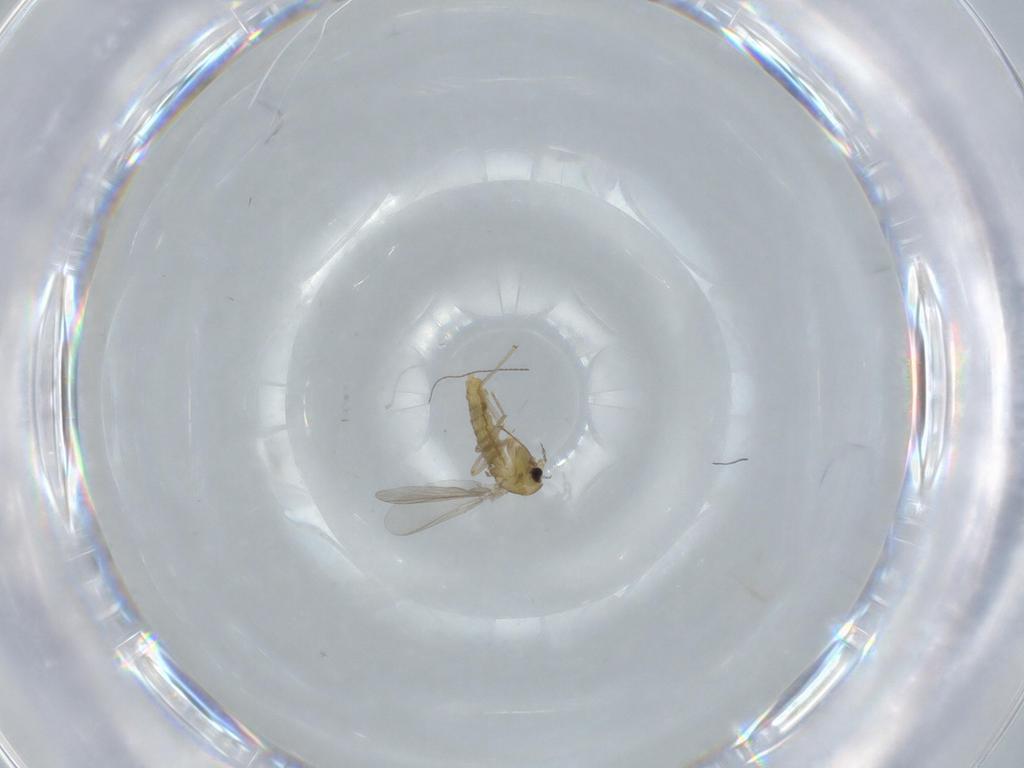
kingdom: Animalia
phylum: Arthropoda
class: Insecta
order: Diptera
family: Chironomidae
